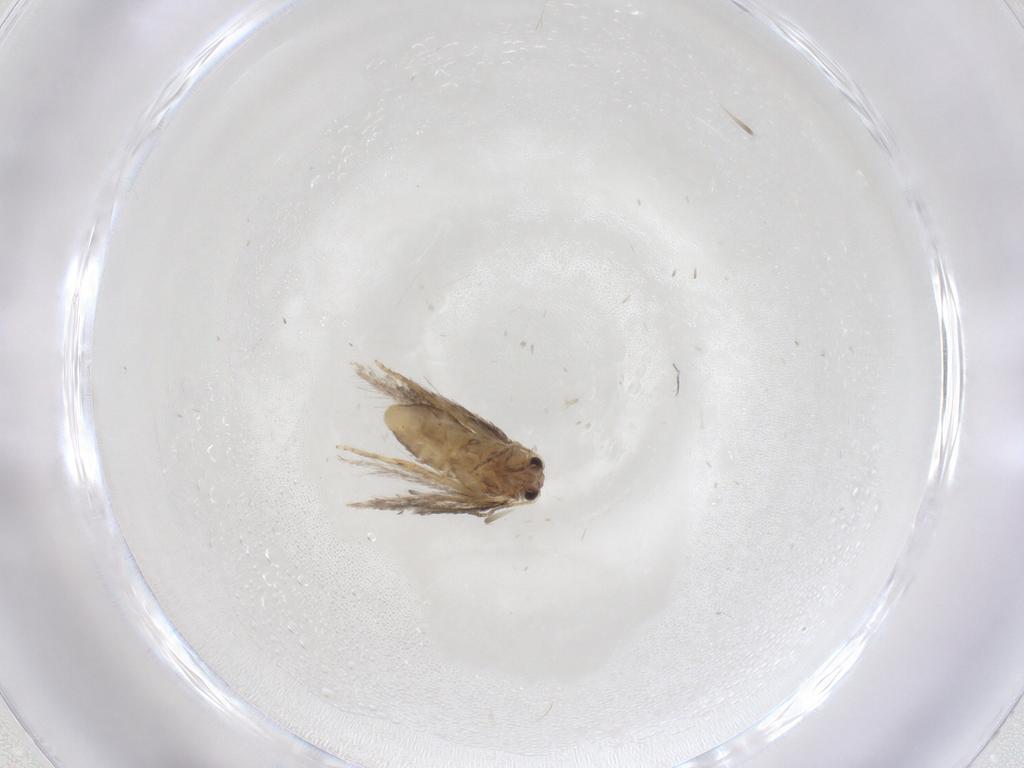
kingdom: Animalia
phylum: Arthropoda
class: Insecta
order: Lepidoptera
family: Nepticulidae
